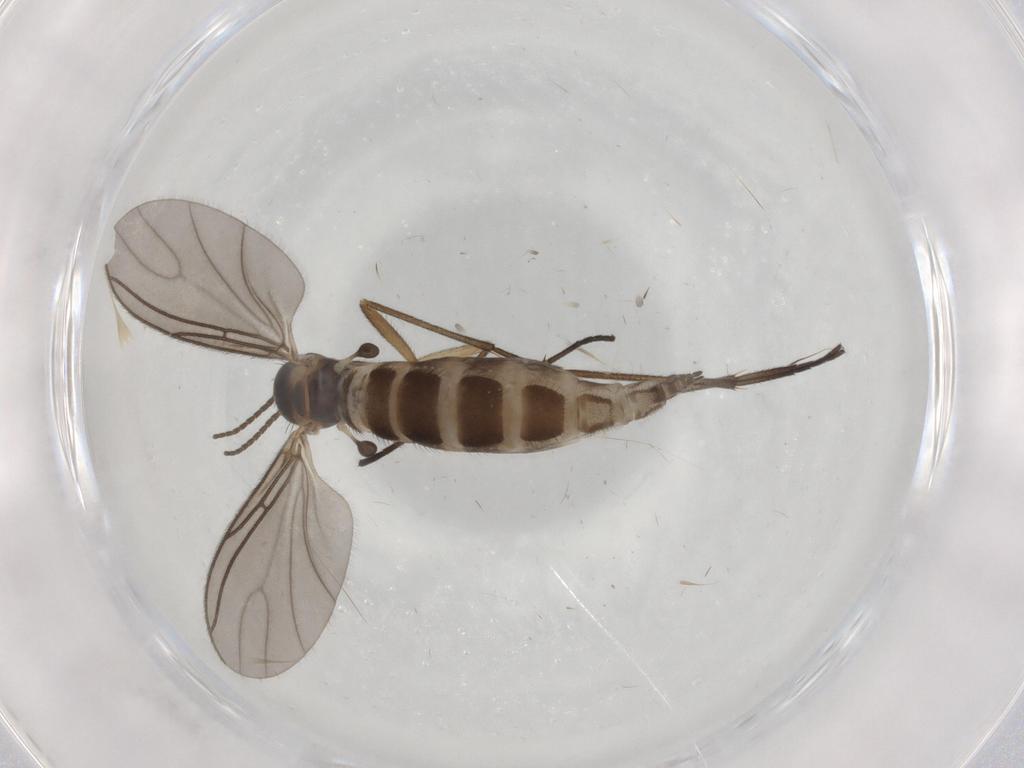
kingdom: Animalia
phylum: Arthropoda
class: Insecta
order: Diptera
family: Sciaridae
